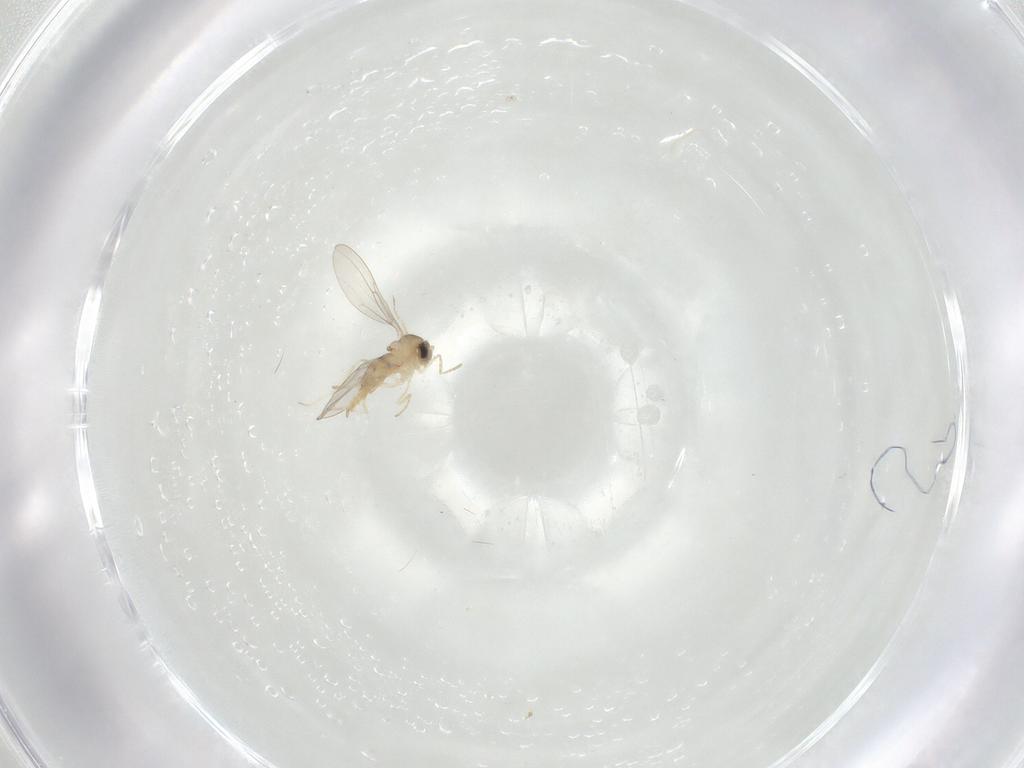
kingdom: Animalia
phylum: Arthropoda
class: Insecta
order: Diptera
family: Cecidomyiidae
